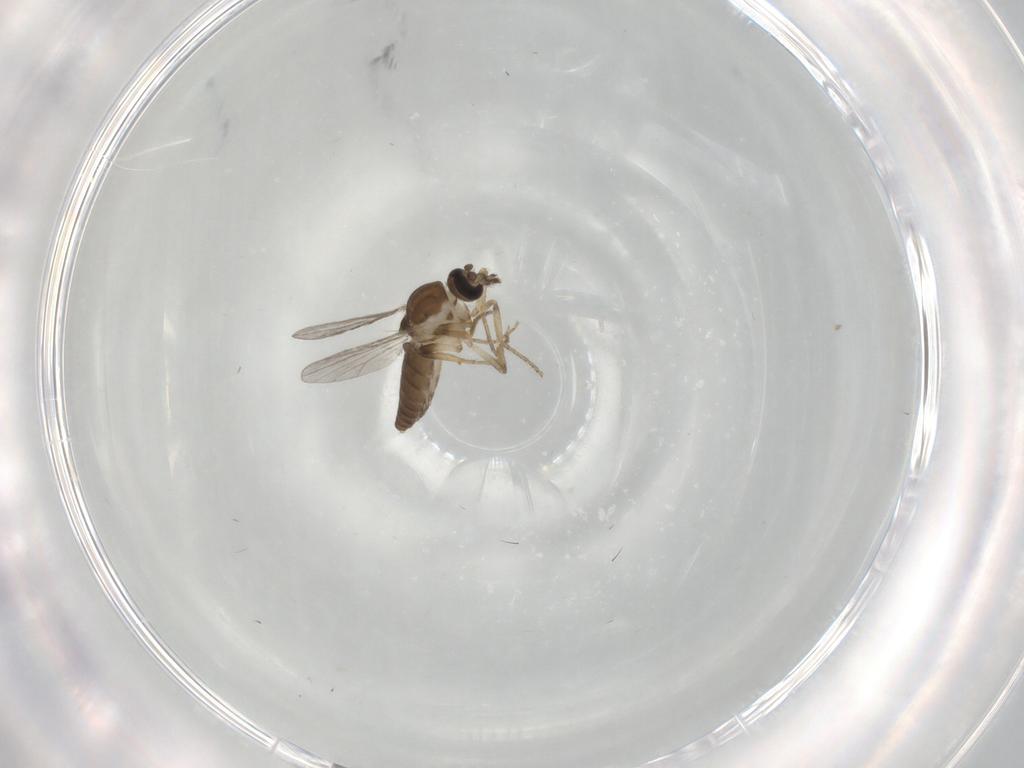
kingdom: Animalia
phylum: Arthropoda
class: Insecta
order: Diptera
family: Ceratopogonidae
